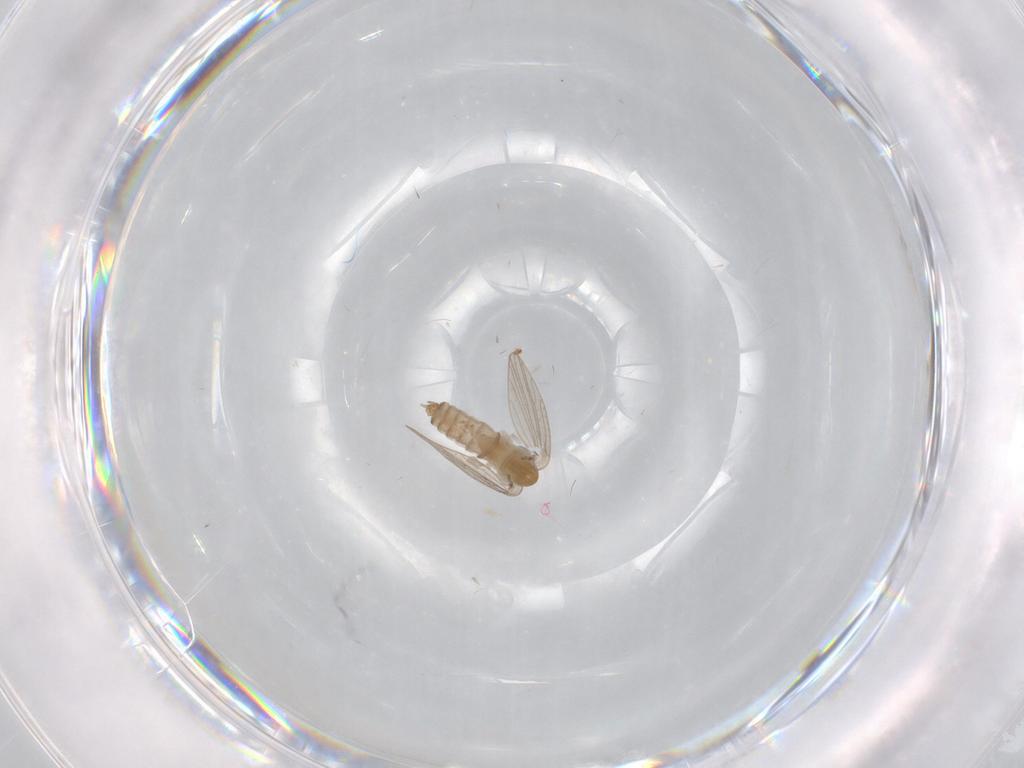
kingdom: Animalia
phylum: Arthropoda
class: Insecta
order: Diptera
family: Psychodidae
